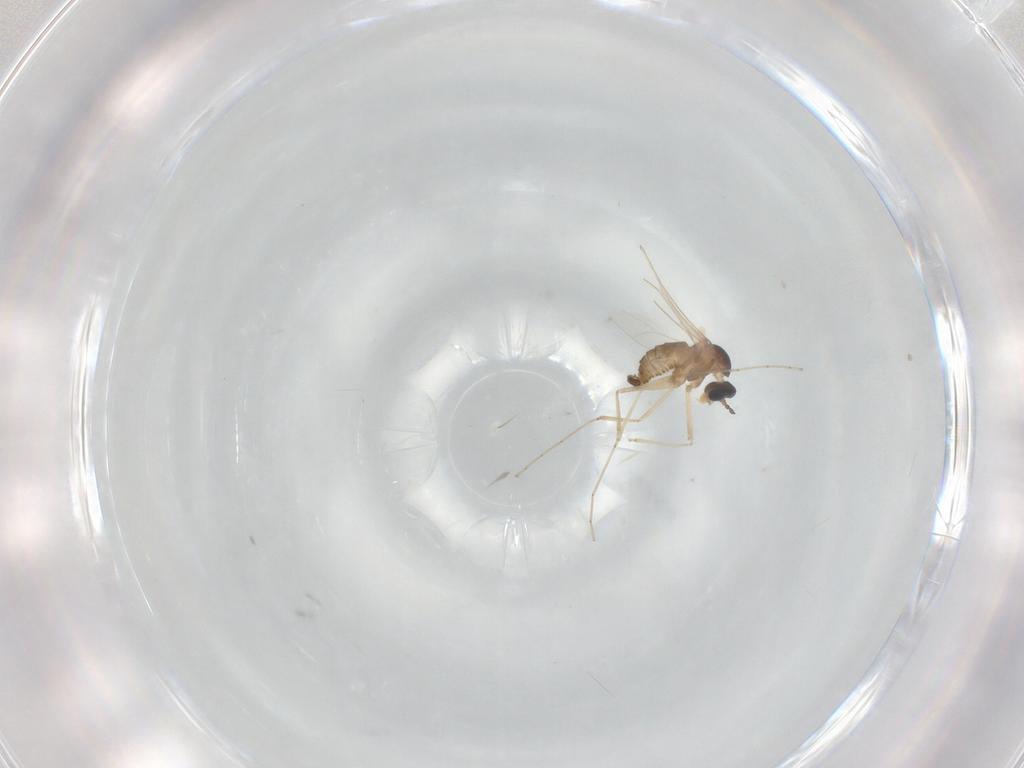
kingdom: Animalia
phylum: Arthropoda
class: Insecta
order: Diptera
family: Cecidomyiidae
